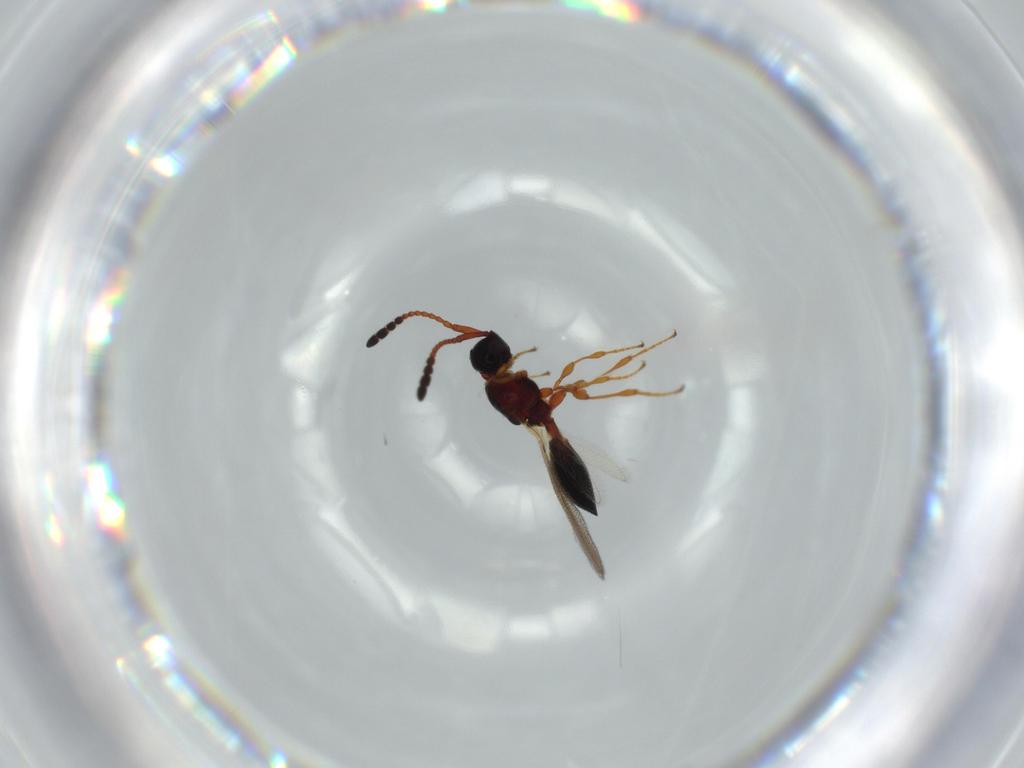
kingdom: Animalia
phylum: Arthropoda
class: Insecta
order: Hymenoptera
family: Diapriidae
